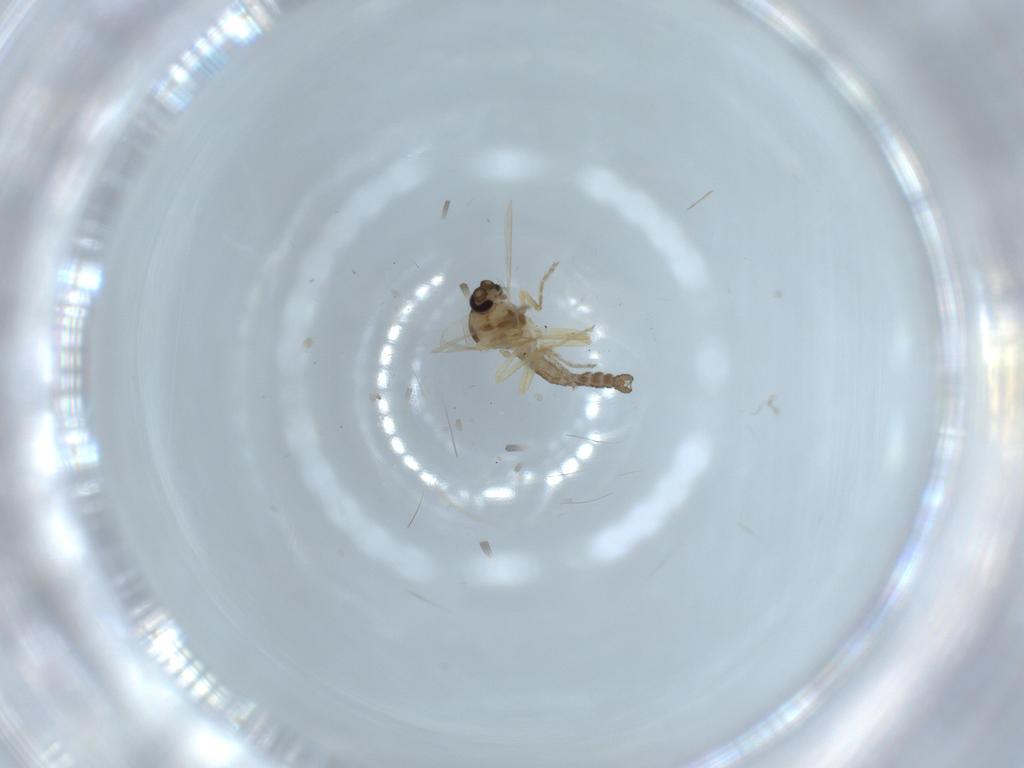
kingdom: Animalia
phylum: Arthropoda
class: Insecta
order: Diptera
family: Ceratopogonidae
